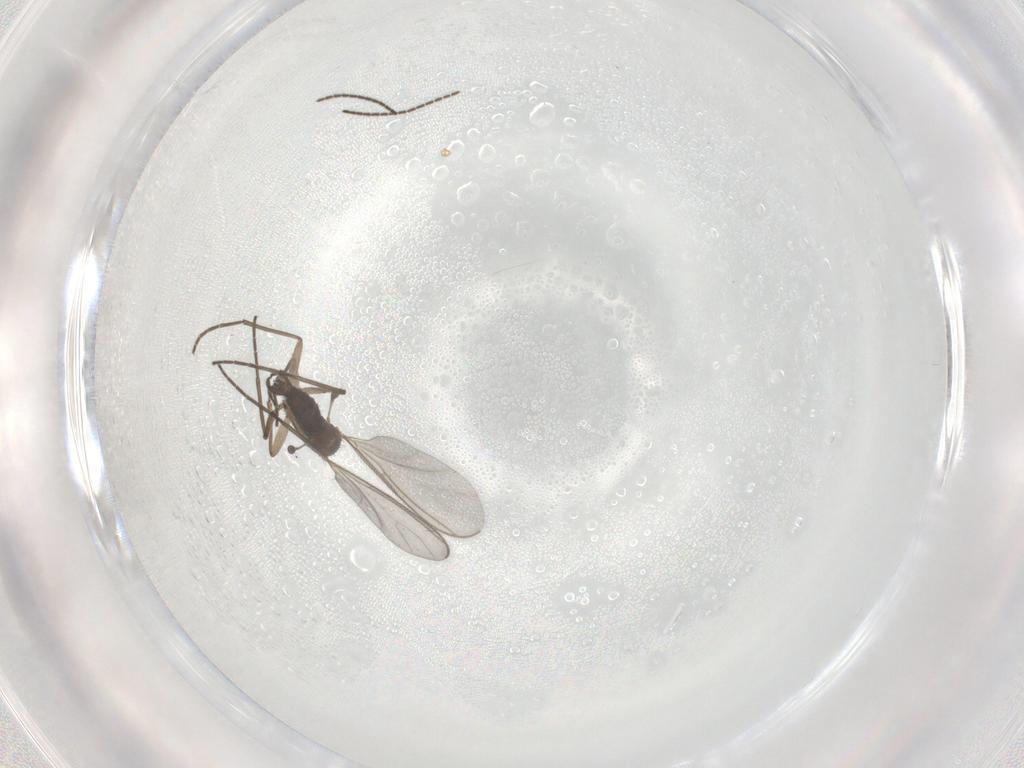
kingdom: Animalia
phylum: Arthropoda
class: Insecta
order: Diptera
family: Sciaridae
